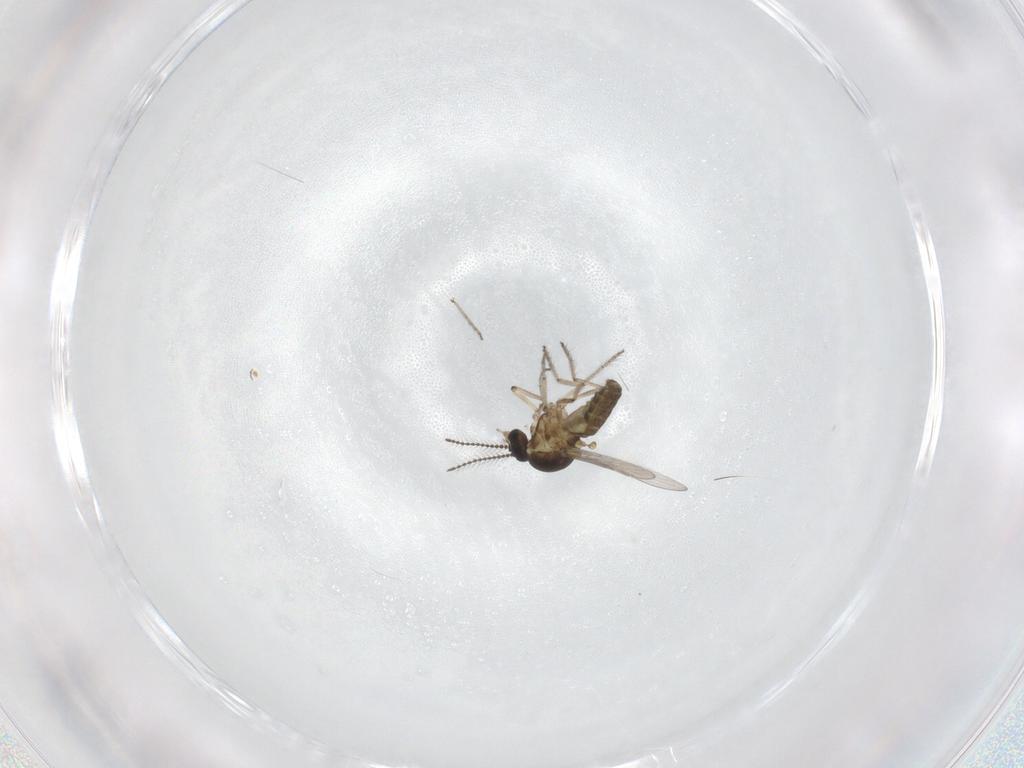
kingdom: Animalia
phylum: Arthropoda
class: Insecta
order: Diptera
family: Ceratopogonidae
